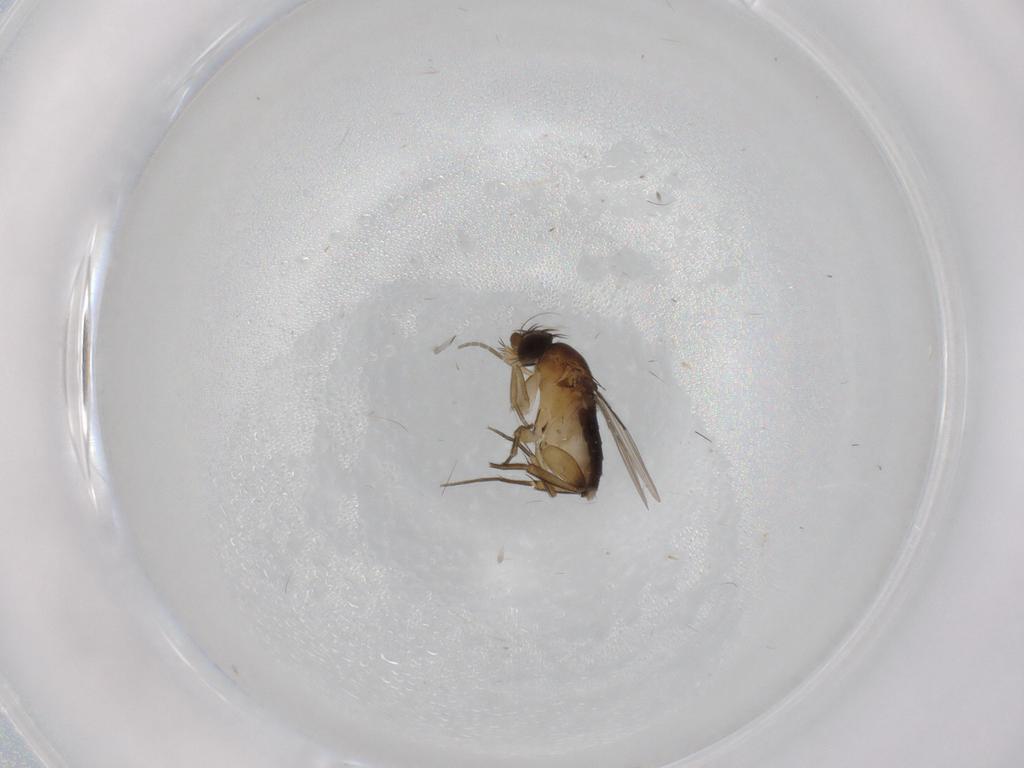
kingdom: Animalia
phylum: Arthropoda
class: Insecta
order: Diptera
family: Phoridae
